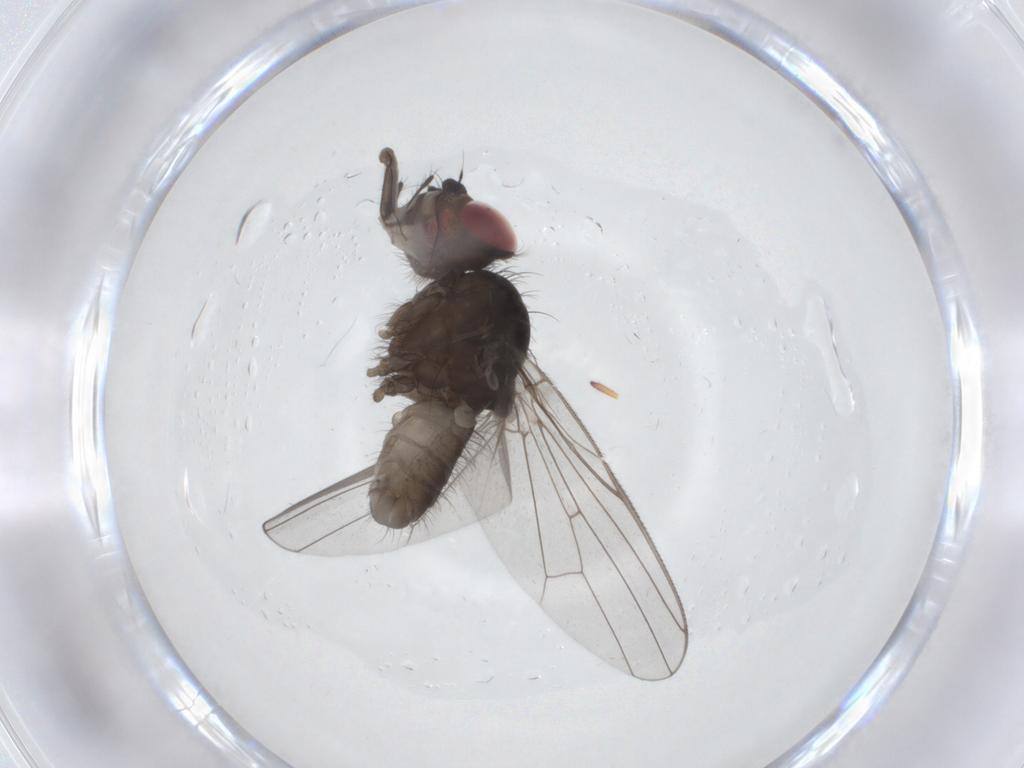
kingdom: Animalia
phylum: Arthropoda
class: Insecta
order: Diptera
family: Anthomyiidae
